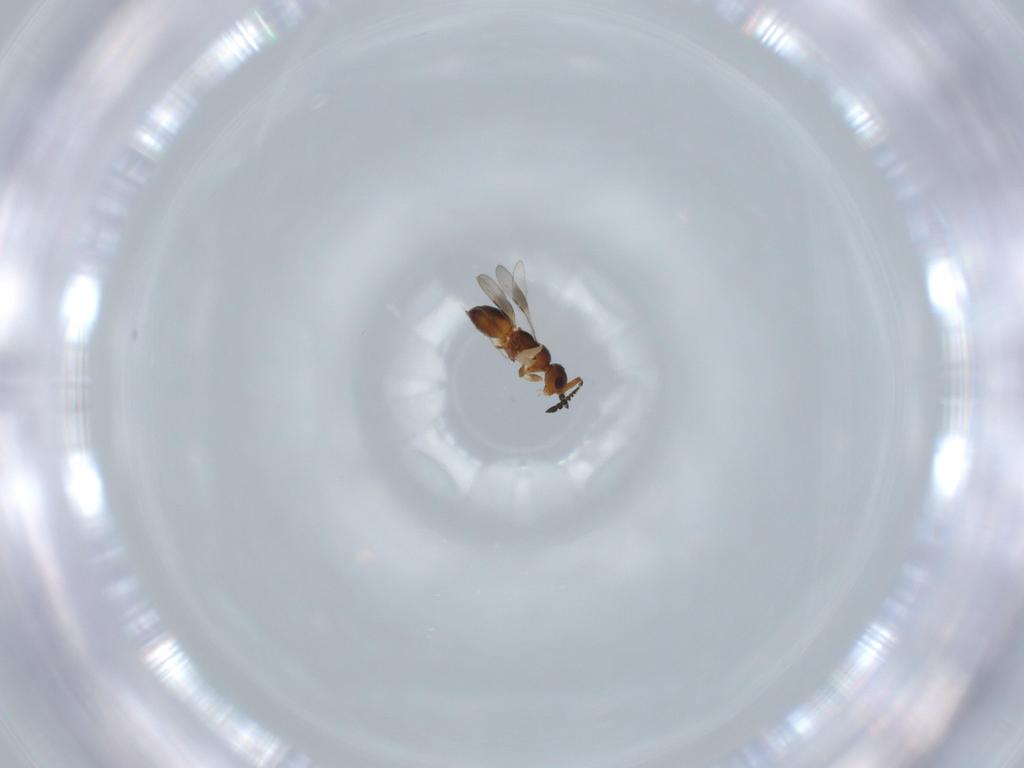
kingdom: Animalia
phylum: Arthropoda
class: Insecta
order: Hymenoptera
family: Ceraphronidae
